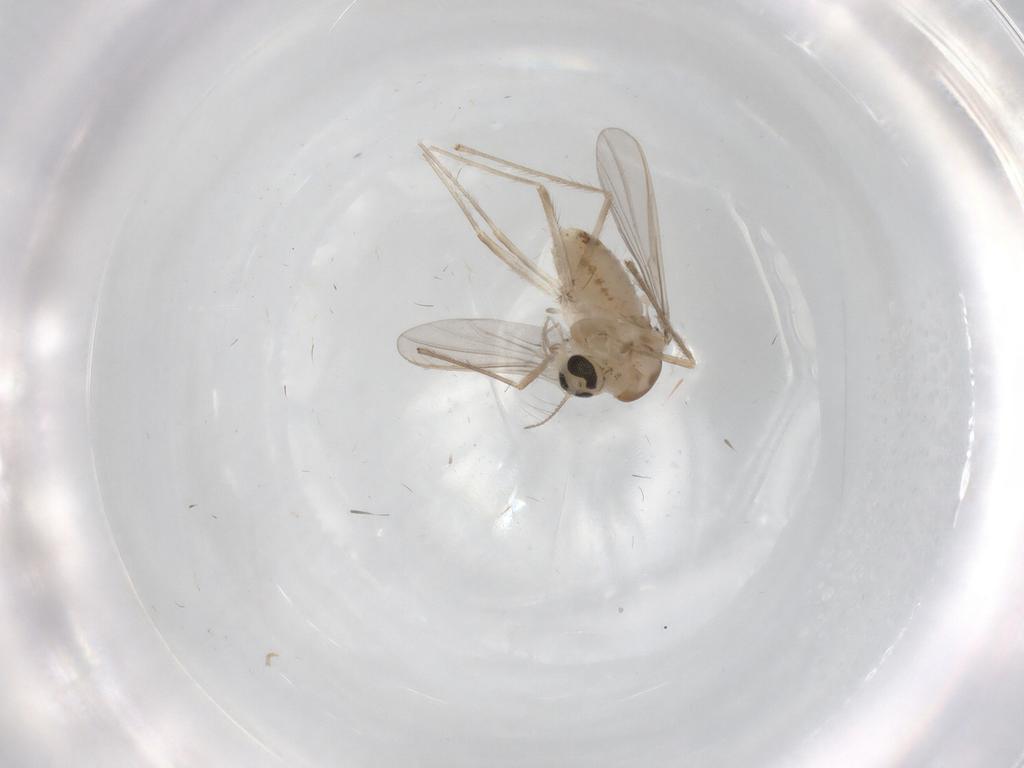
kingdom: Animalia
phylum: Arthropoda
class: Insecta
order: Diptera
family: Chironomidae
